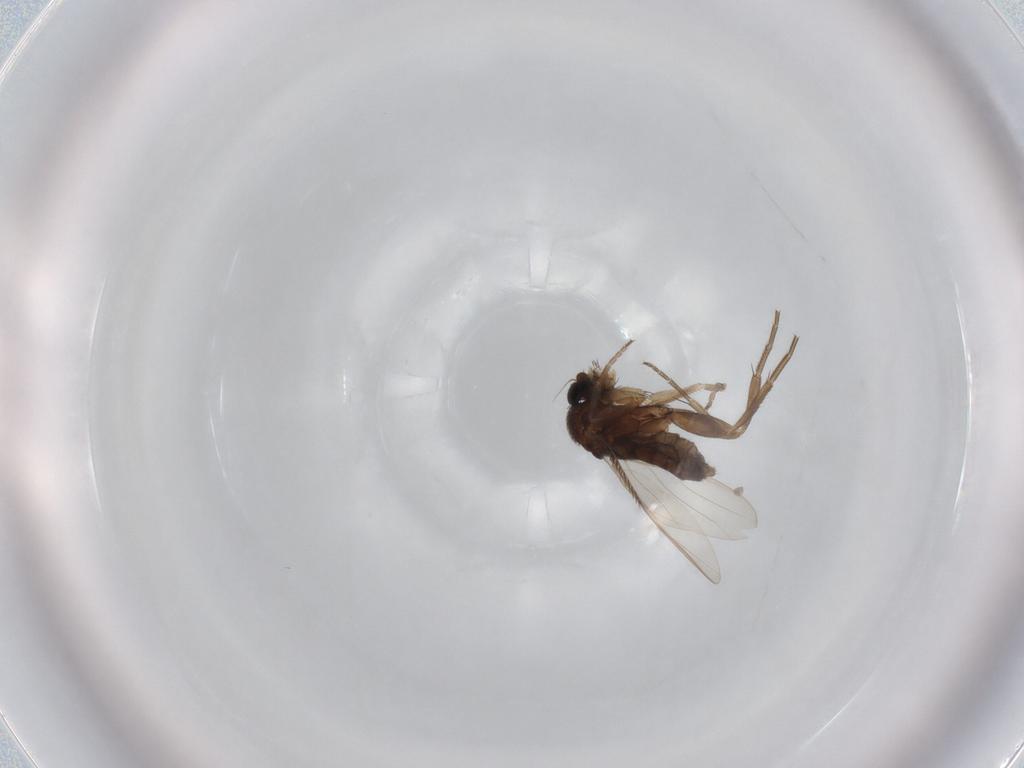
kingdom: Animalia
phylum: Arthropoda
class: Insecta
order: Diptera
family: Phoridae
